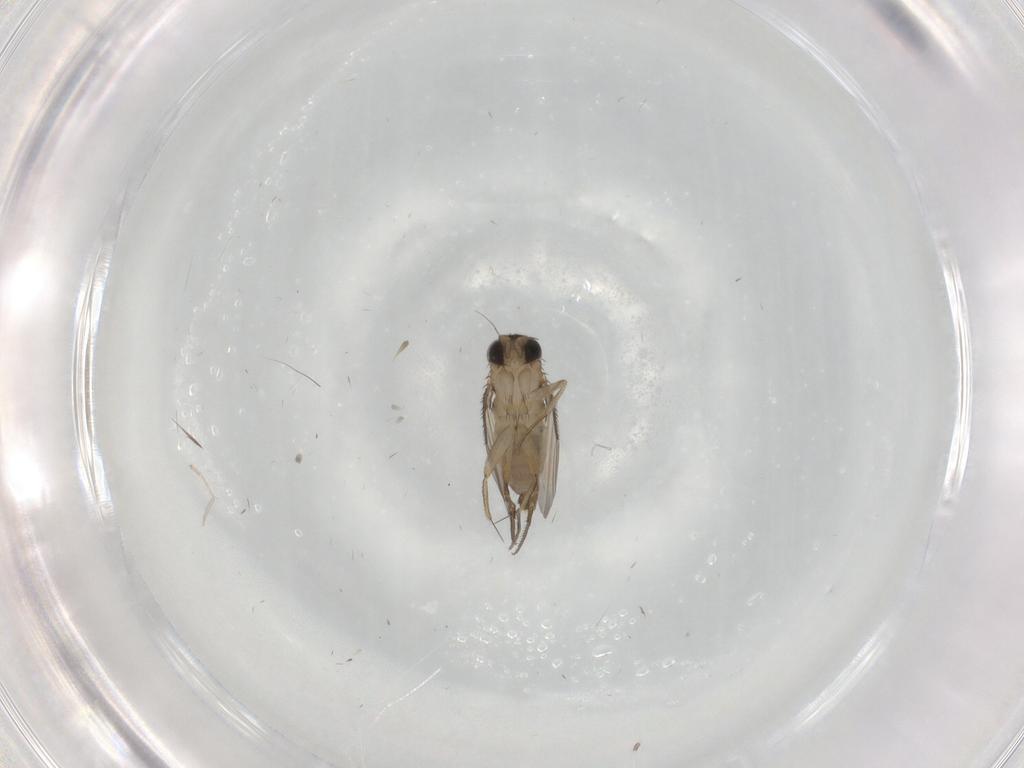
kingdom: Animalia
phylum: Arthropoda
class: Insecta
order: Diptera
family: Phoridae
